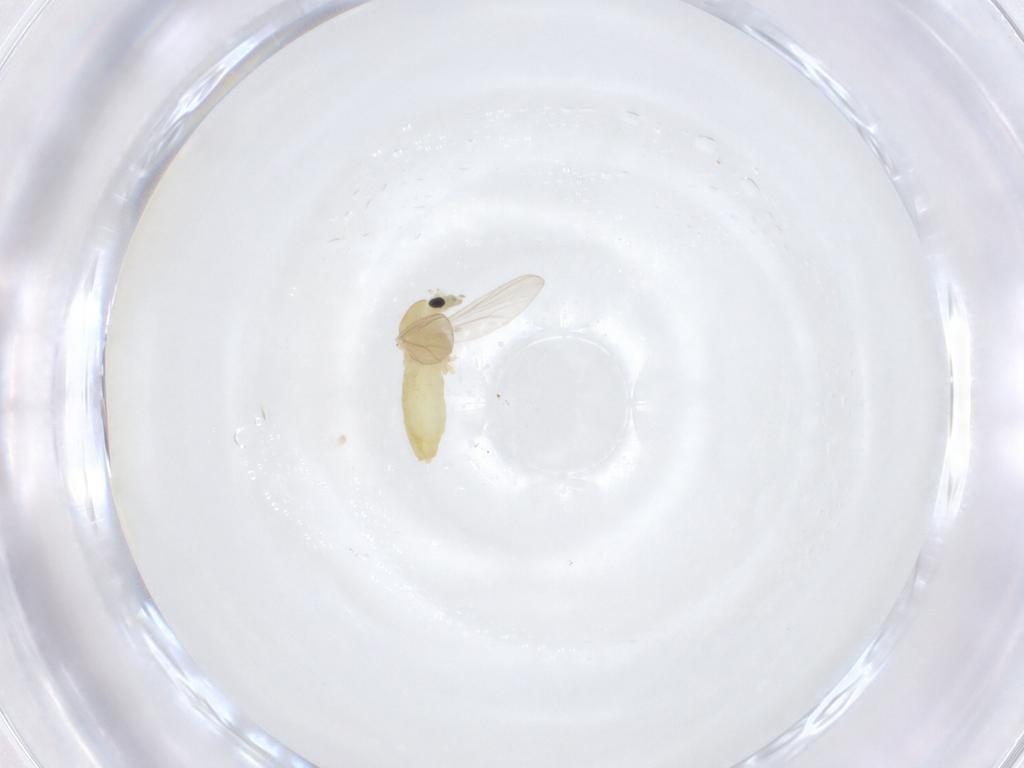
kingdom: Animalia
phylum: Arthropoda
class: Insecta
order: Diptera
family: Chironomidae
